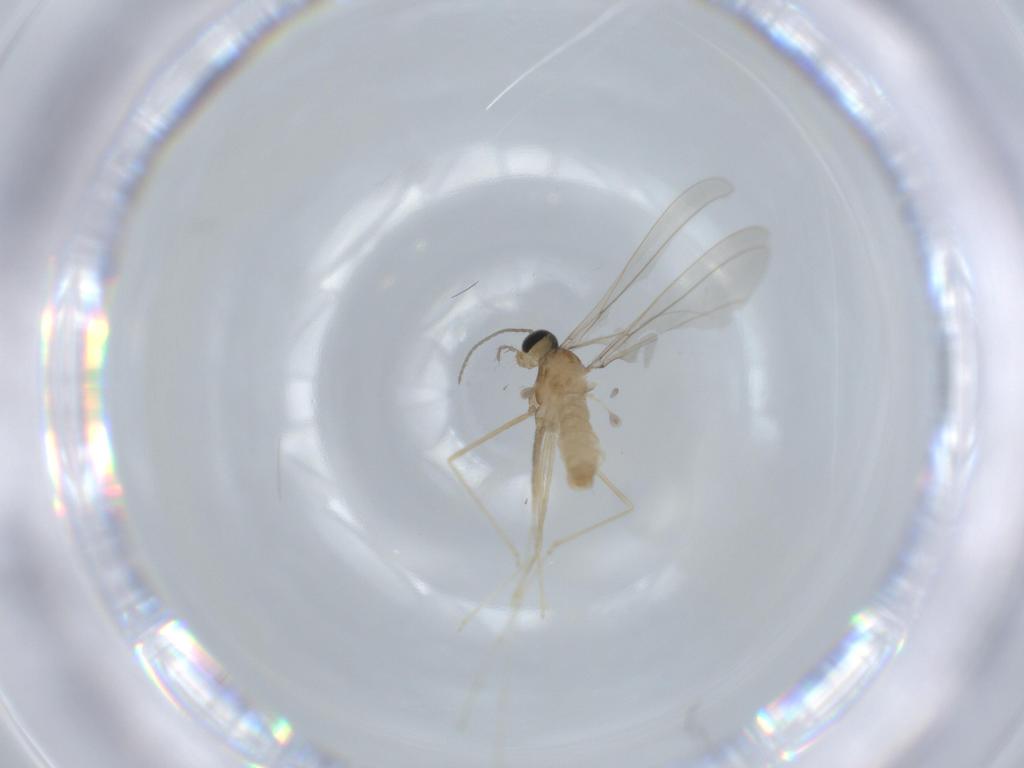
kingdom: Animalia
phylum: Arthropoda
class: Insecta
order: Diptera
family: Cecidomyiidae
